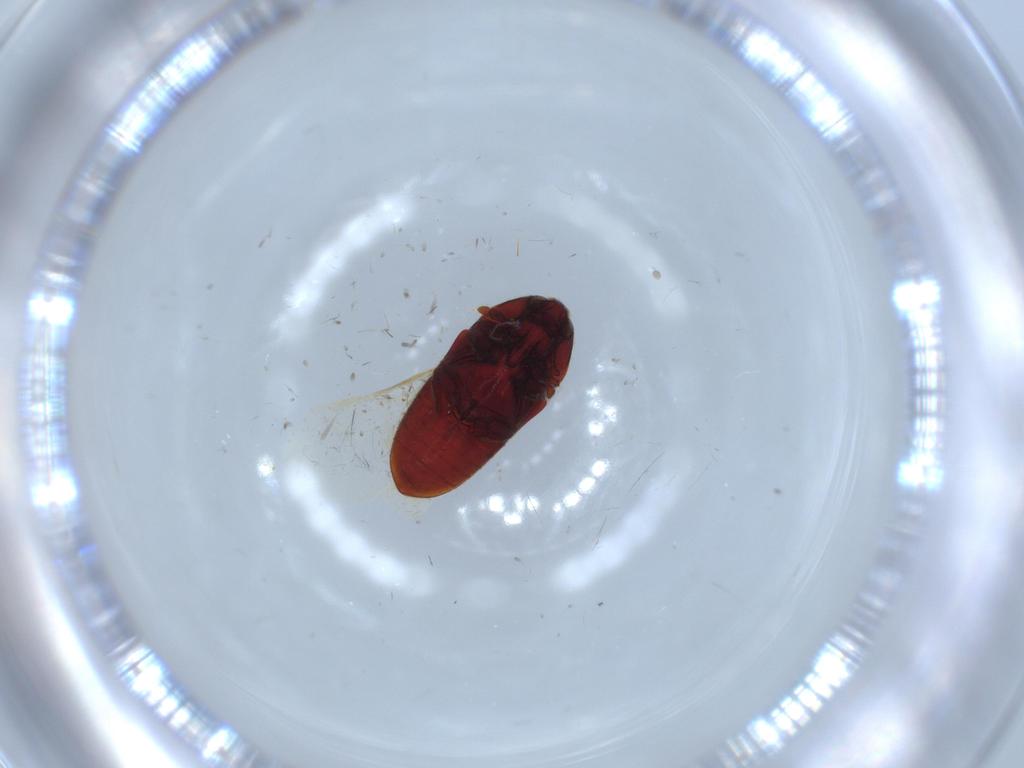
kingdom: Animalia
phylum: Arthropoda
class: Insecta
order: Coleoptera
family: Throscidae
